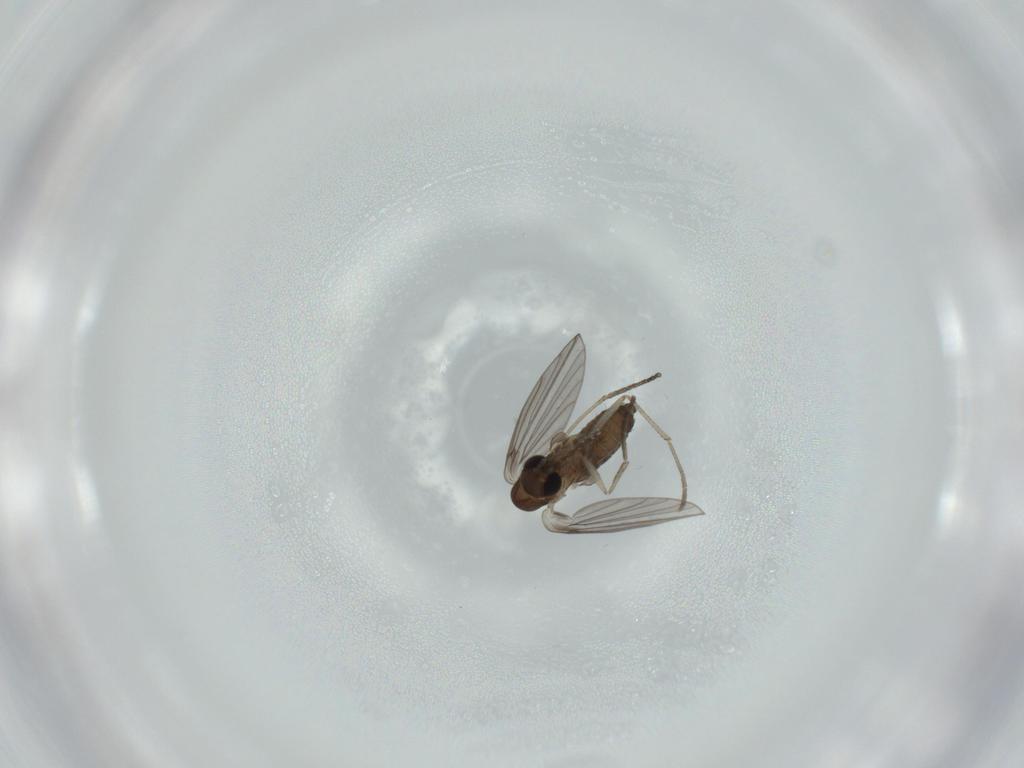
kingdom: Animalia
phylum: Arthropoda
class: Insecta
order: Diptera
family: Psychodidae
